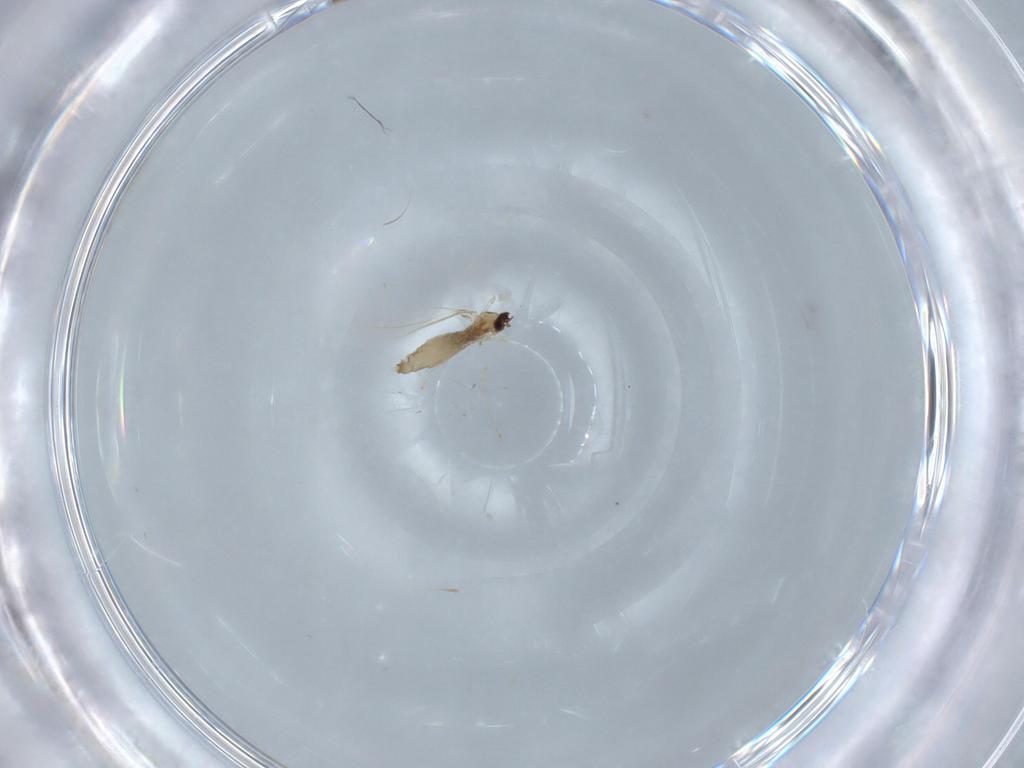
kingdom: Animalia
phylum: Arthropoda
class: Insecta
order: Diptera
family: Cecidomyiidae
